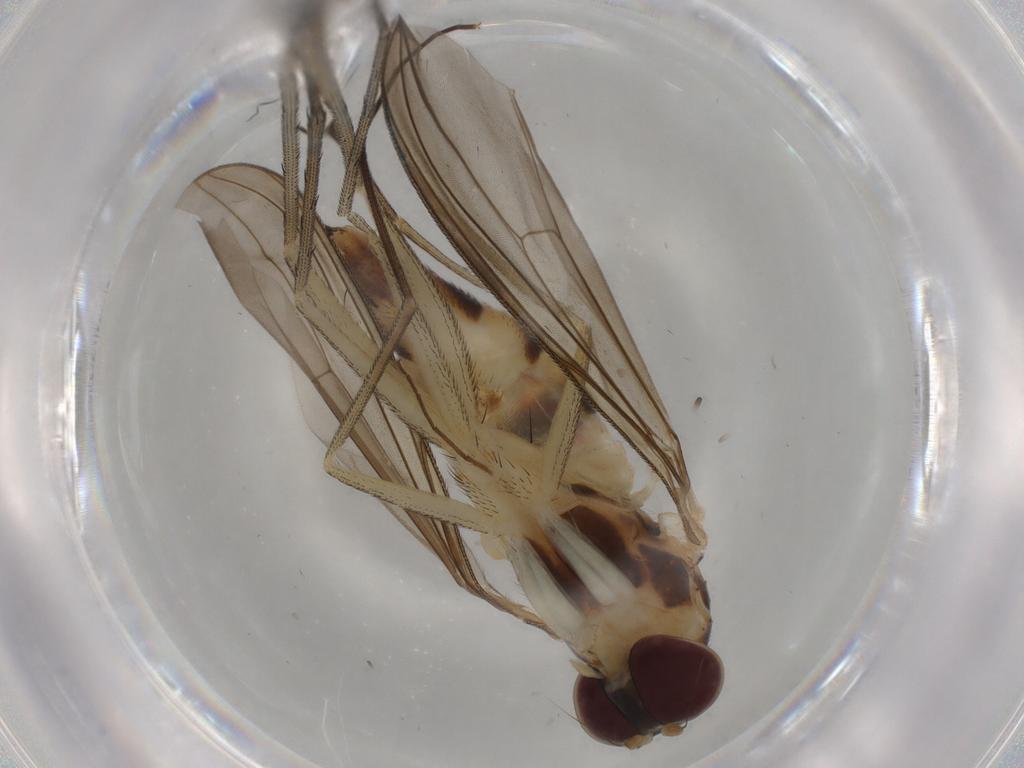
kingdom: Animalia
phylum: Arthropoda
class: Insecta
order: Diptera
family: Chironomidae
